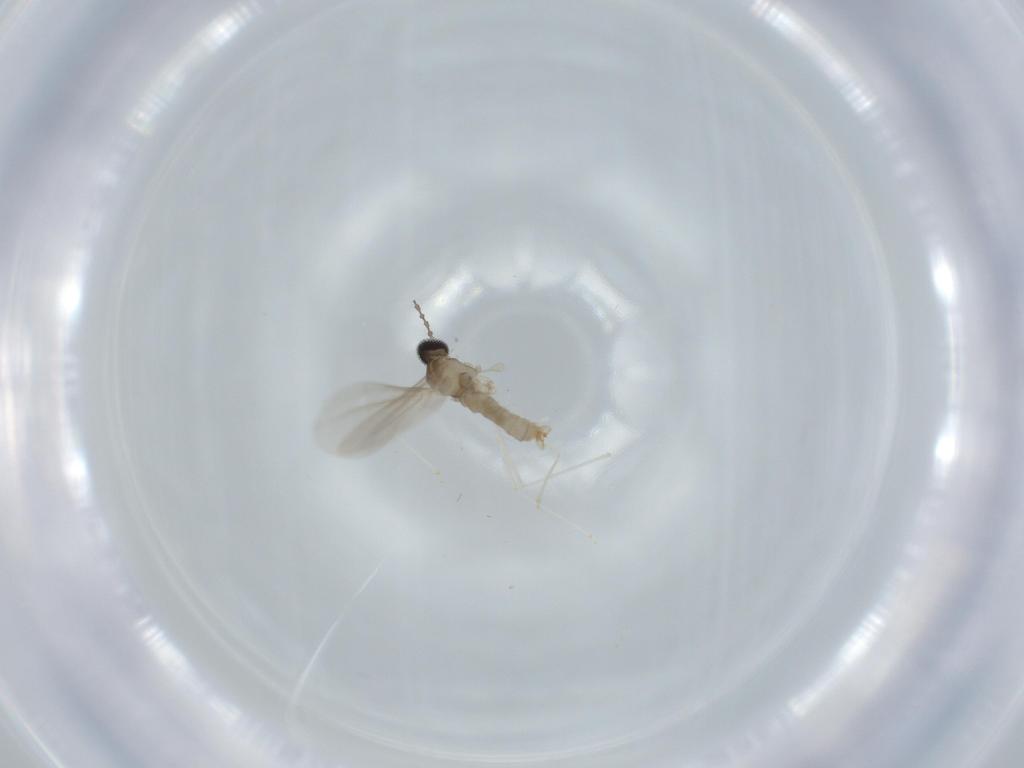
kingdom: Animalia
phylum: Arthropoda
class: Insecta
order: Diptera
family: Cecidomyiidae
